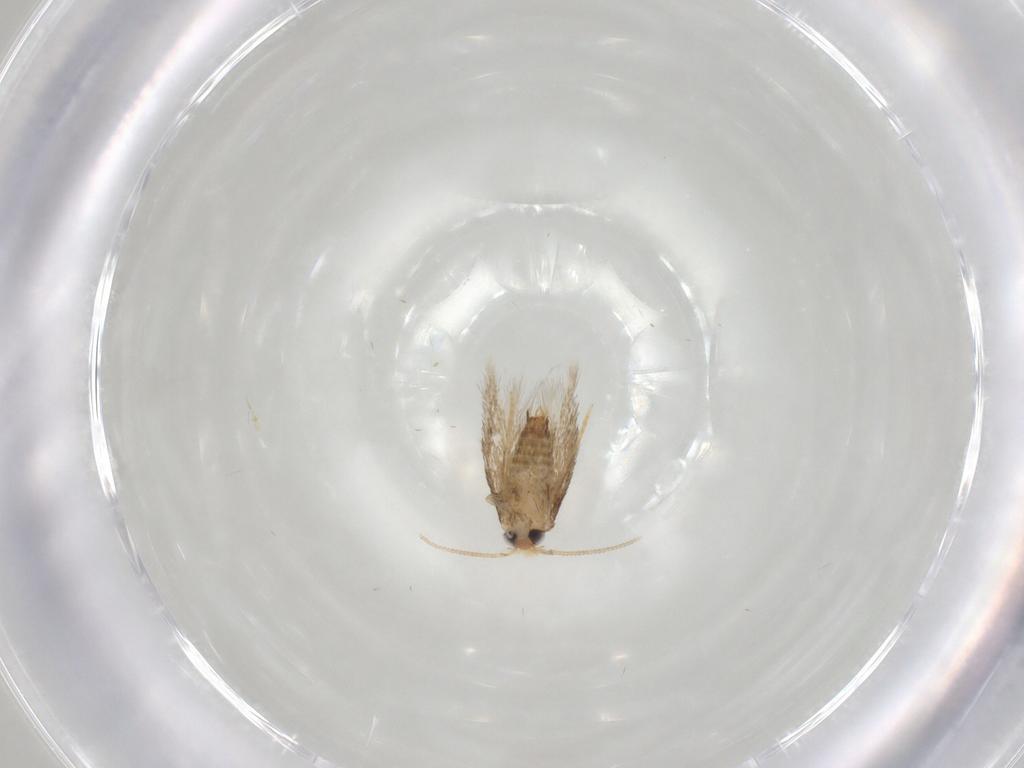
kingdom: Animalia
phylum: Arthropoda
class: Insecta
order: Lepidoptera
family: Nepticulidae
